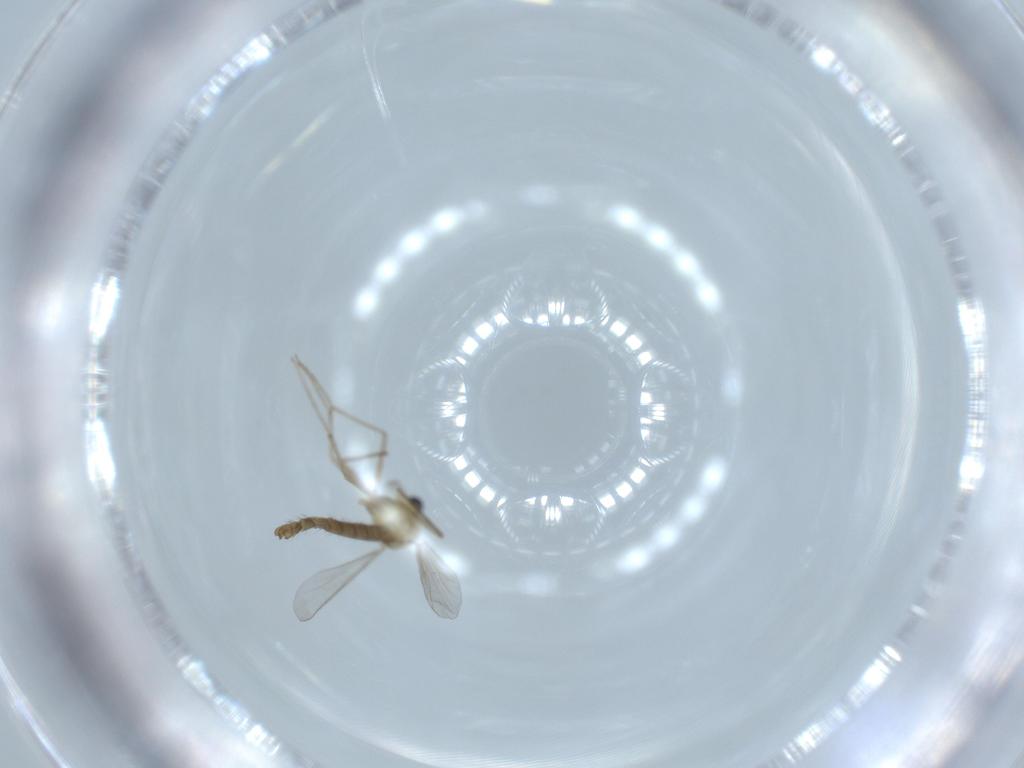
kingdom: Animalia
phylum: Arthropoda
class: Insecta
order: Diptera
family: Chironomidae
